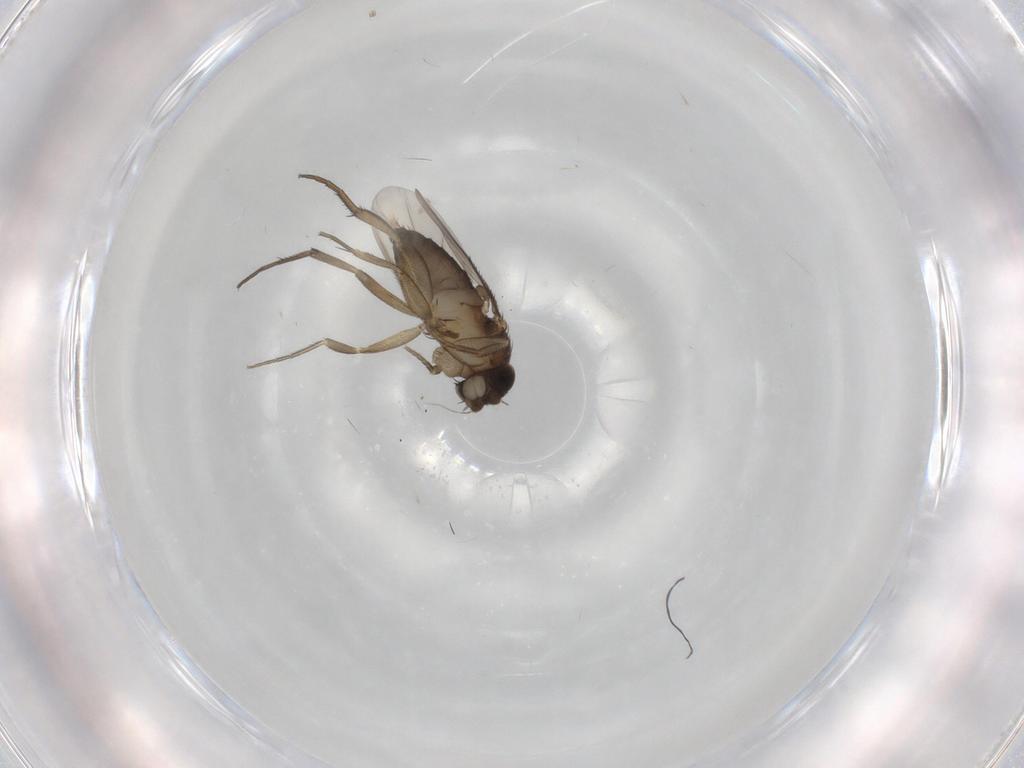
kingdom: Animalia
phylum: Arthropoda
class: Insecta
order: Diptera
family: Phoridae
